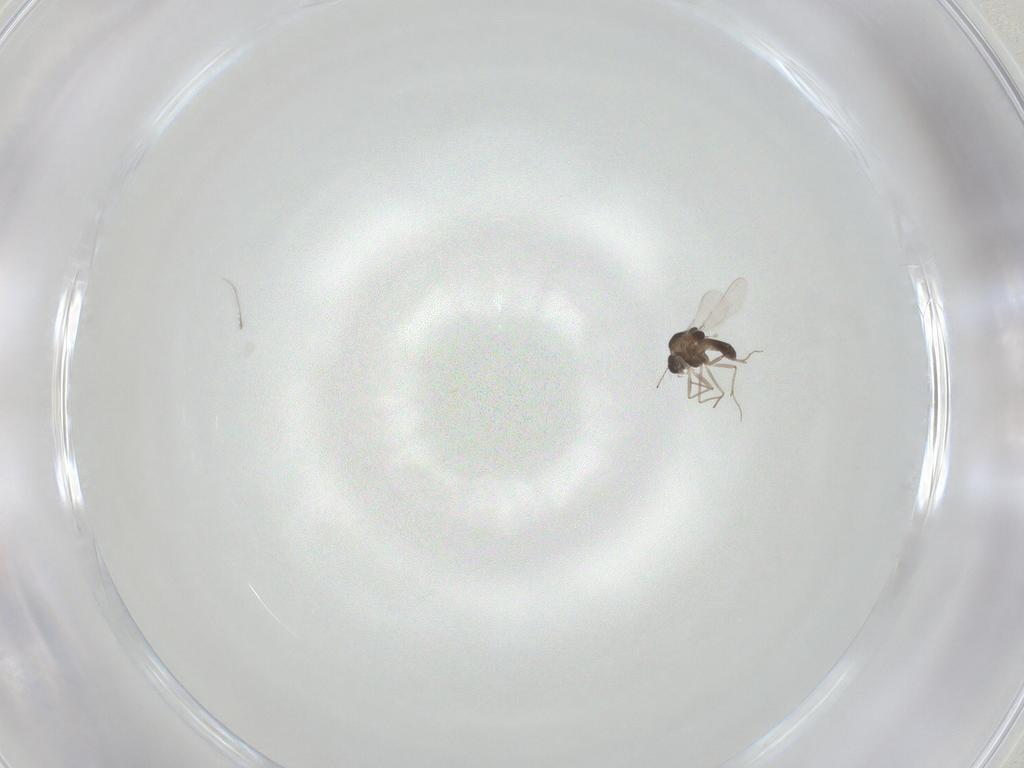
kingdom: Animalia
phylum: Arthropoda
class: Insecta
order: Diptera
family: Chironomidae
